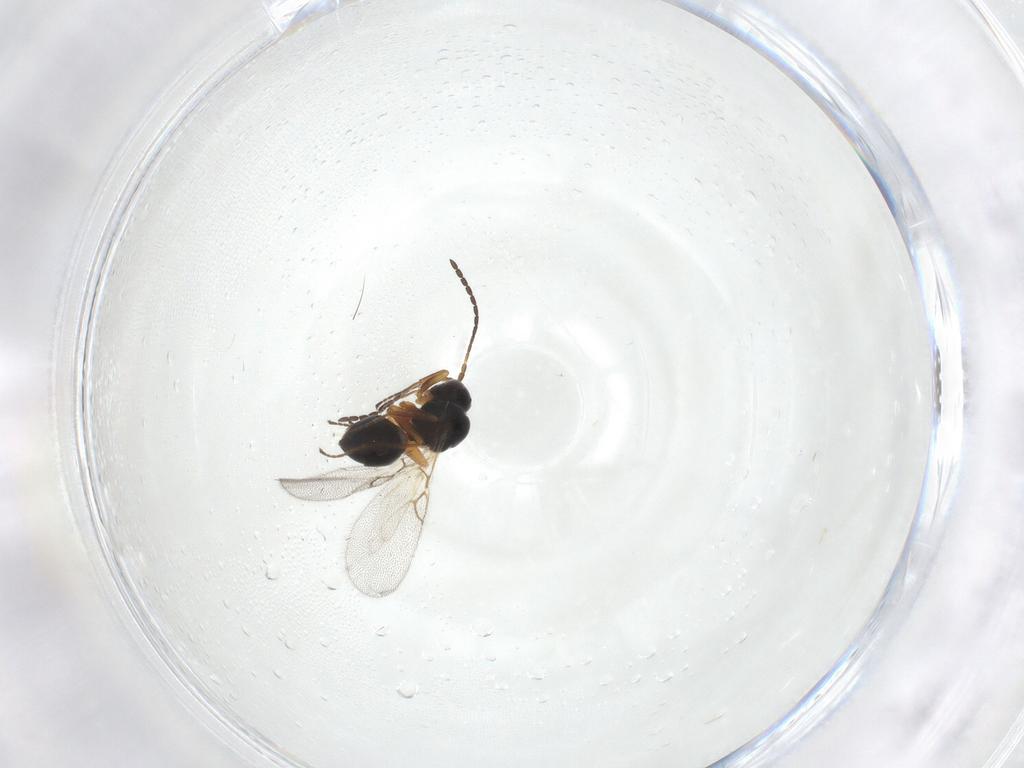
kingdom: Animalia
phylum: Arthropoda
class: Insecta
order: Hymenoptera
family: Figitidae
